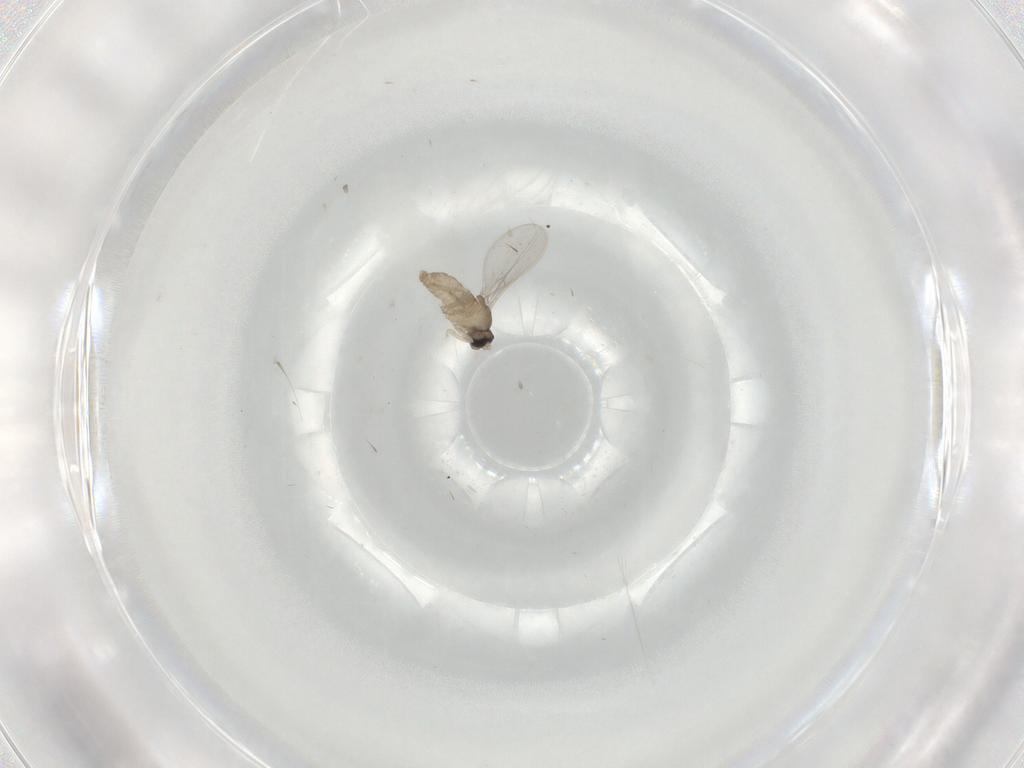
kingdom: Animalia
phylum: Arthropoda
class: Insecta
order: Diptera
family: Cecidomyiidae
